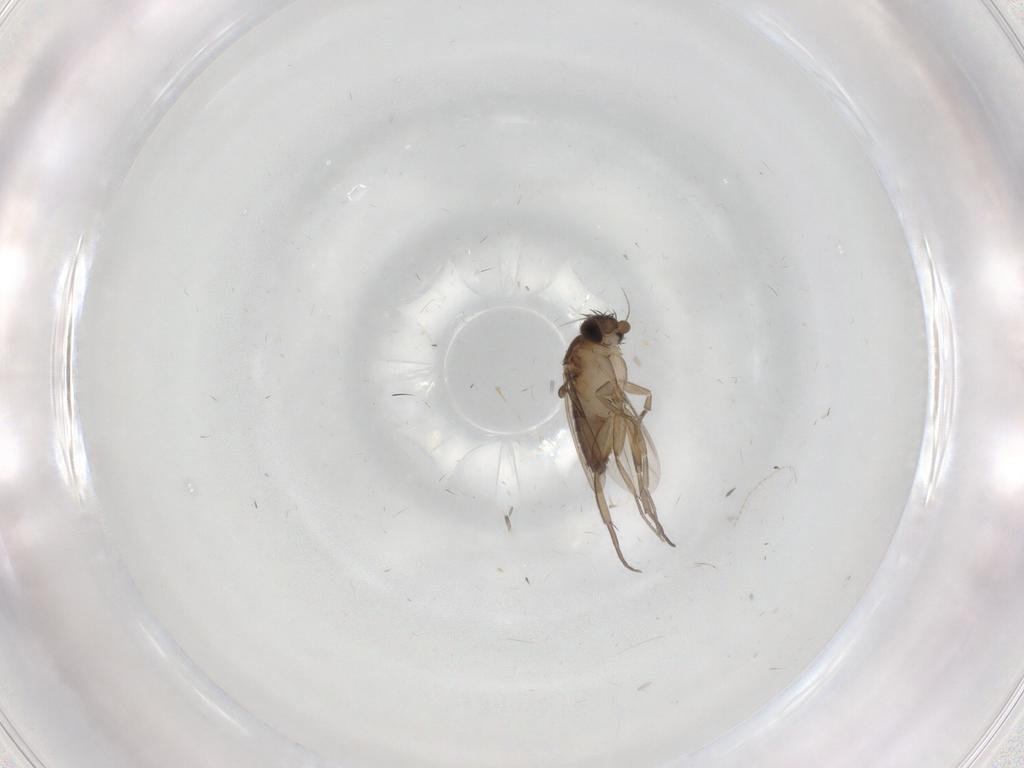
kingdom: Animalia
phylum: Arthropoda
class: Insecta
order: Diptera
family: Phoridae
